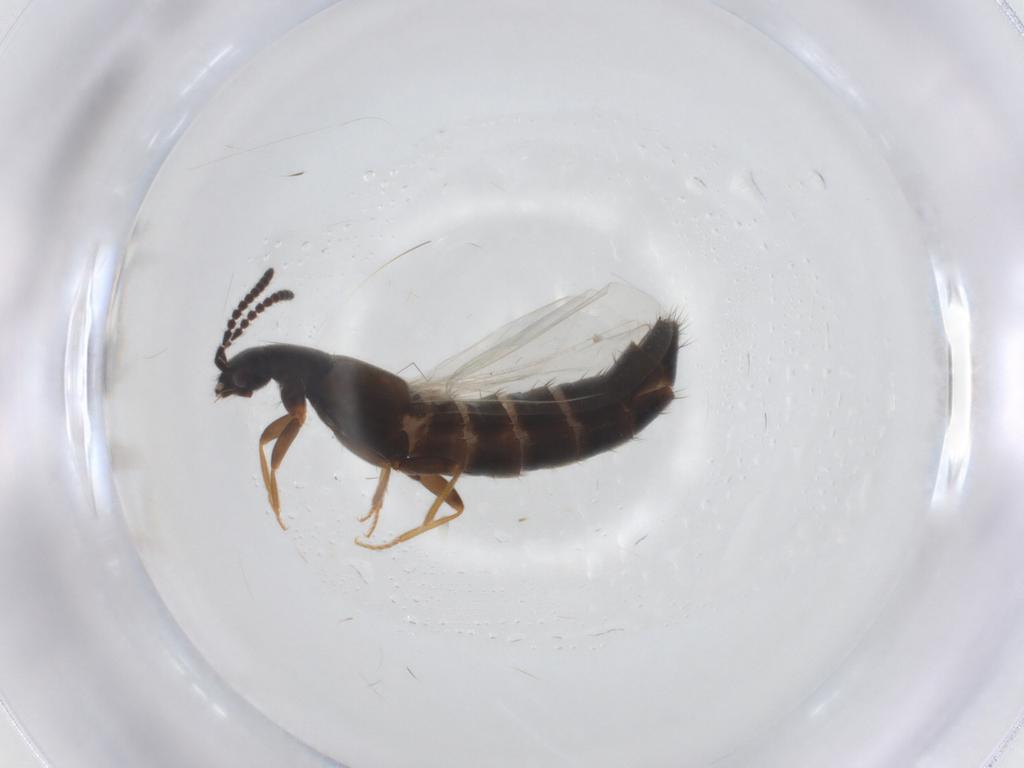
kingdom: Animalia
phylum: Arthropoda
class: Insecta
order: Coleoptera
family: Staphylinidae
